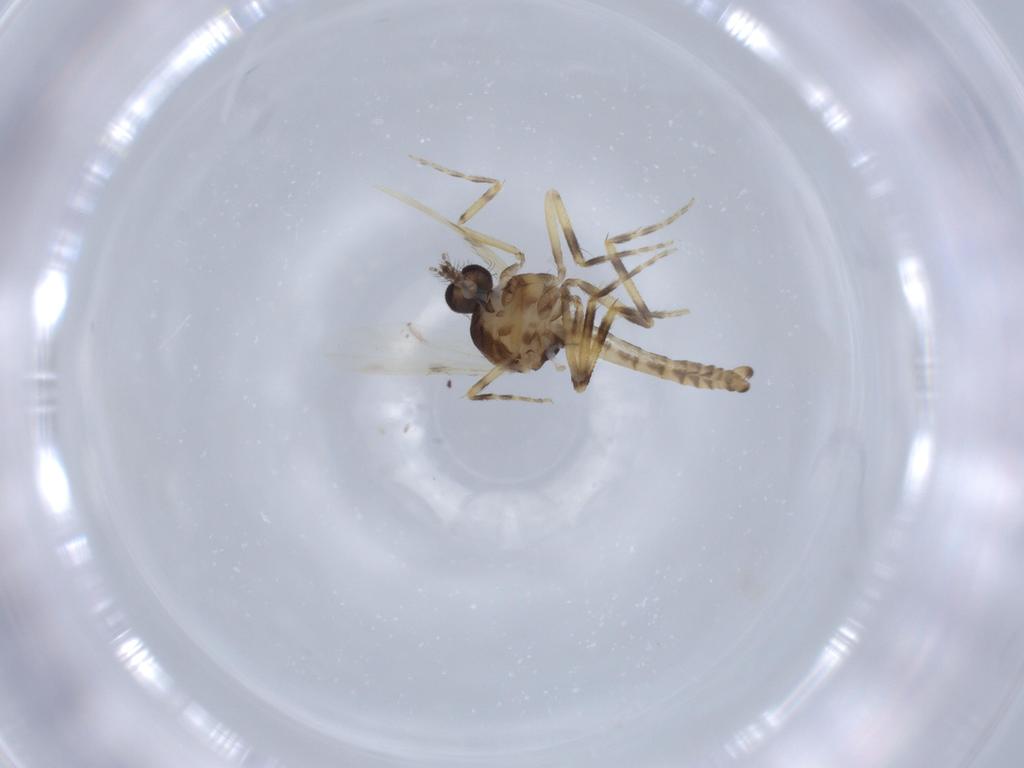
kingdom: Animalia
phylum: Arthropoda
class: Insecta
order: Diptera
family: Ceratopogonidae
